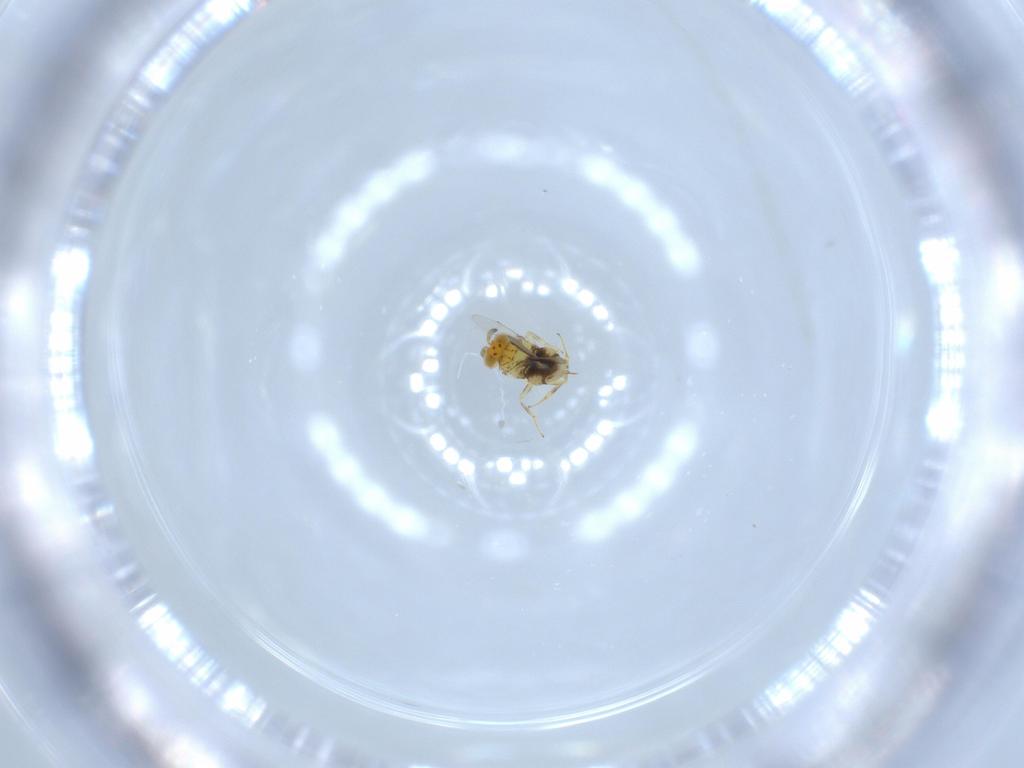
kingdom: Animalia
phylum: Arthropoda
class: Insecta
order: Hymenoptera
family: Aphelinidae
